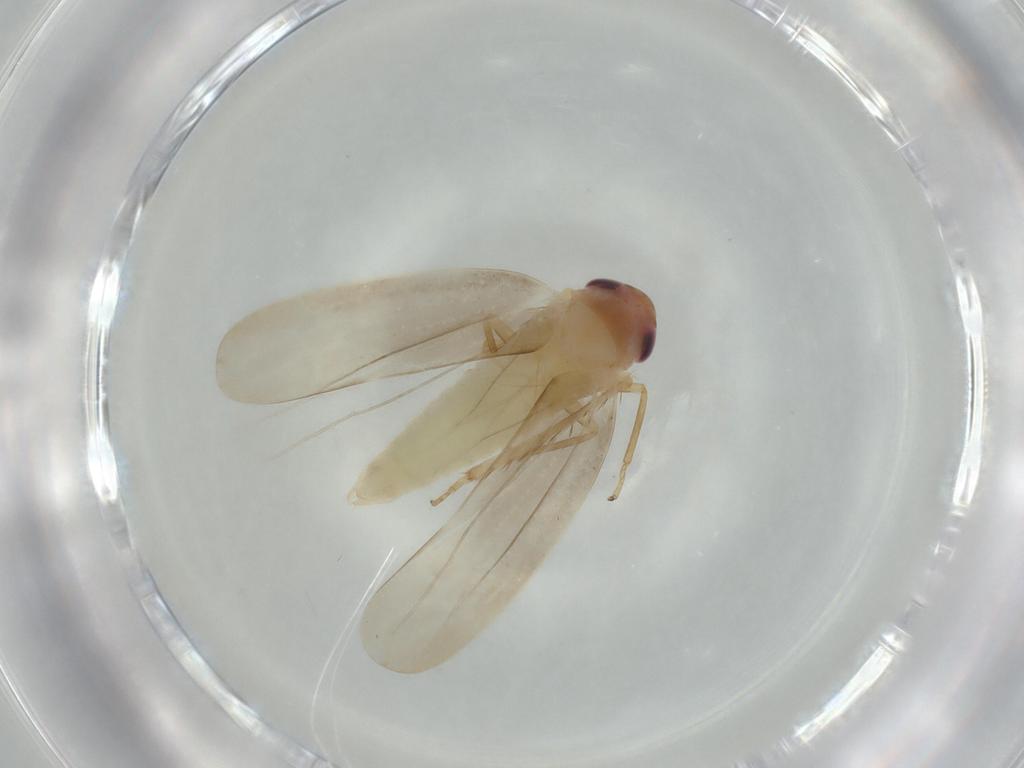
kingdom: Animalia
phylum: Arthropoda
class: Insecta
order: Hemiptera
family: Cicadellidae
